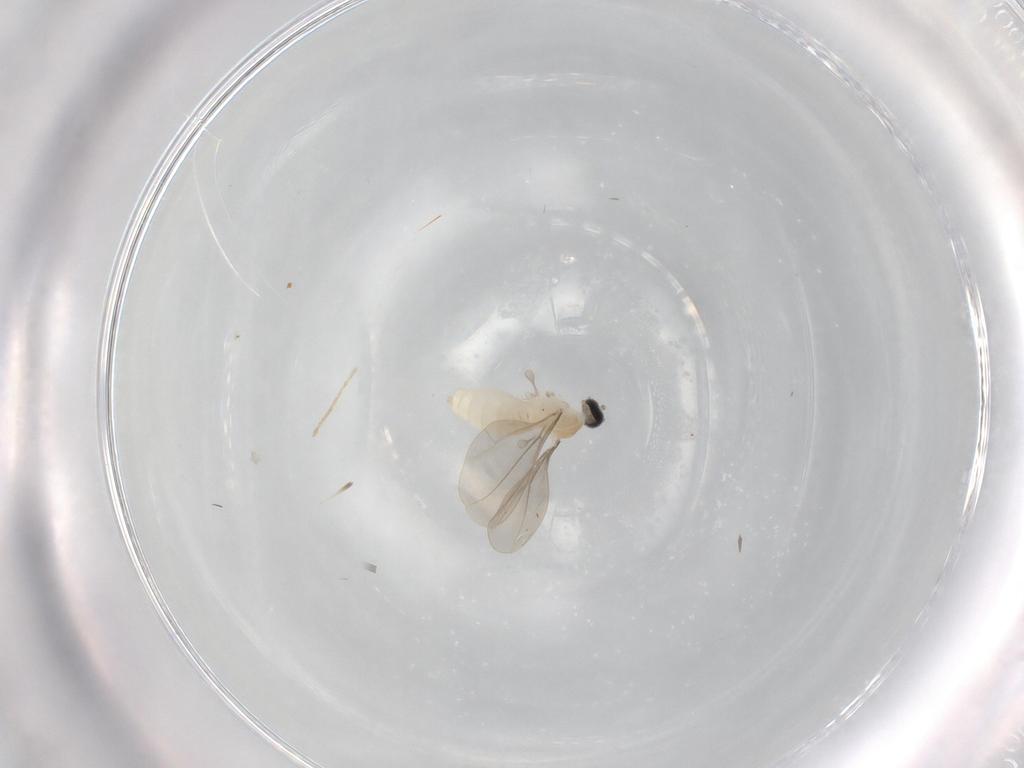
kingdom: Animalia
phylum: Arthropoda
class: Insecta
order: Diptera
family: Cecidomyiidae
